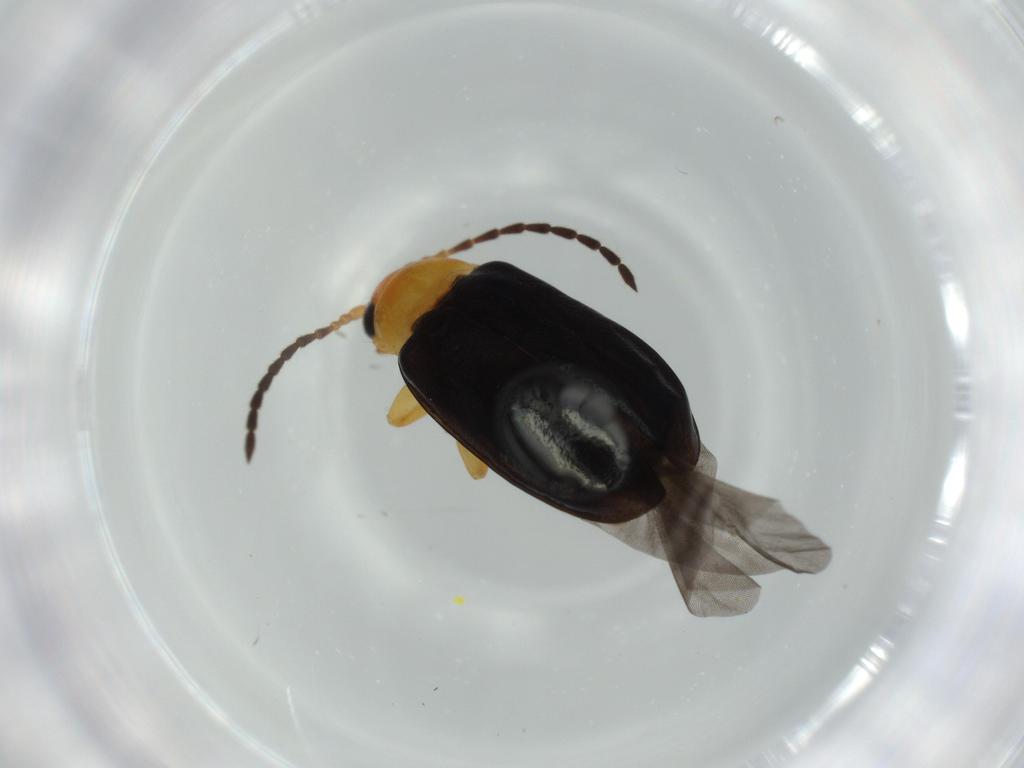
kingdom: Animalia
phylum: Arthropoda
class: Insecta
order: Coleoptera
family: Chrysomelidae
